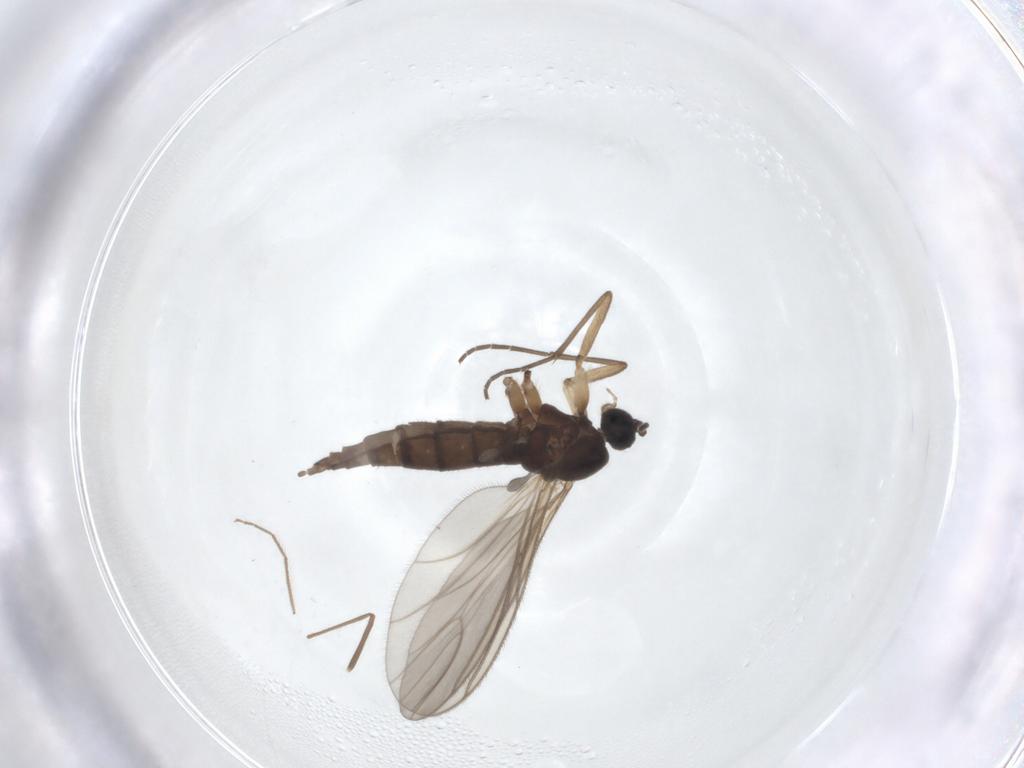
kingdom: Animalia
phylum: Arthropoda
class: Insecta
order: Diptera
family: Sciaridae
